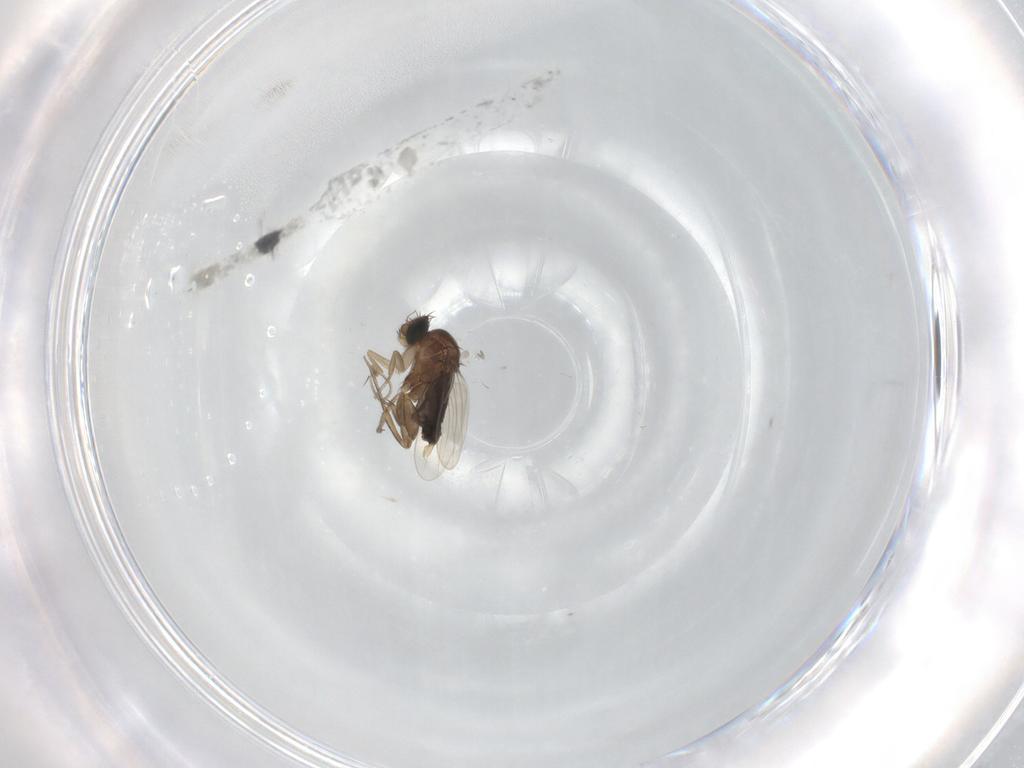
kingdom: Animalia
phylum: Arthropoda
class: Insecta
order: Diptera
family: Phoridae
